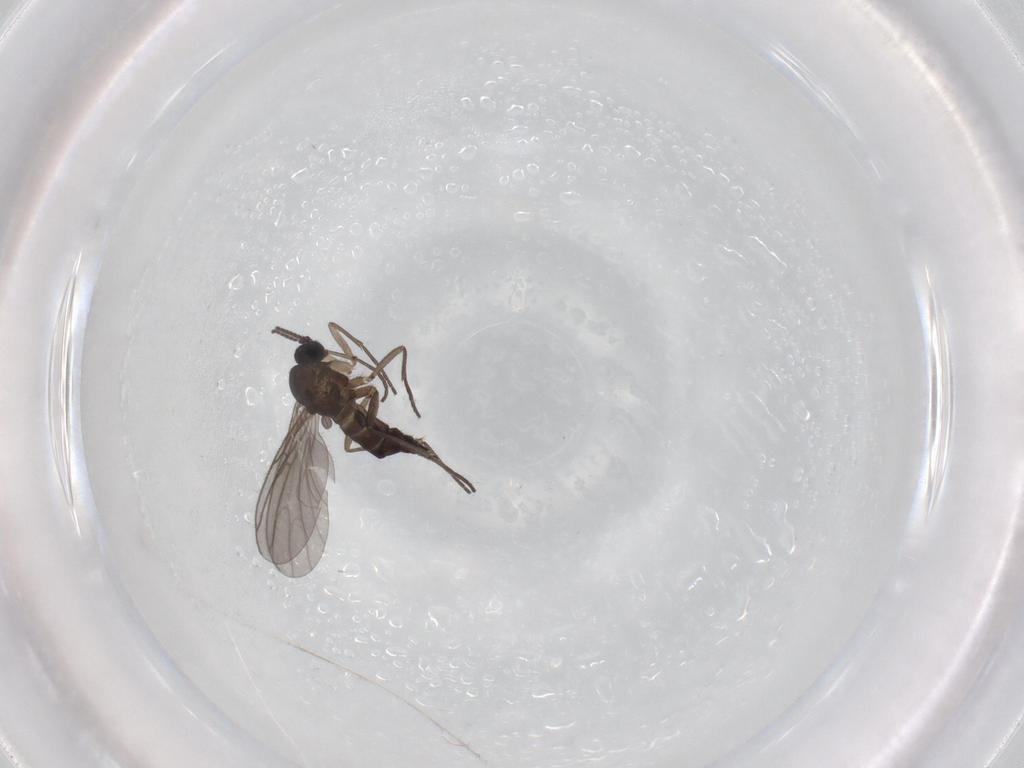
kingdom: Animalia
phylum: Arthropoda
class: Insecta
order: Diptera
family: Sciaridae
